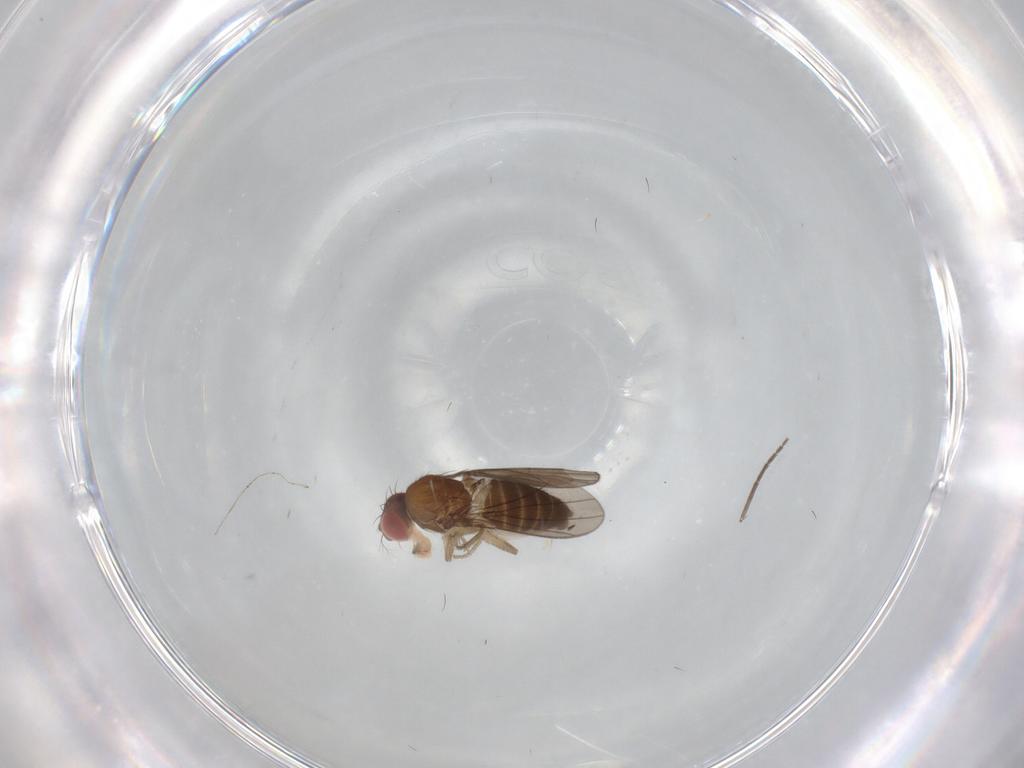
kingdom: Animalia
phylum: Arthropoda
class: Insecta
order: Diptera
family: Drosophilidae
